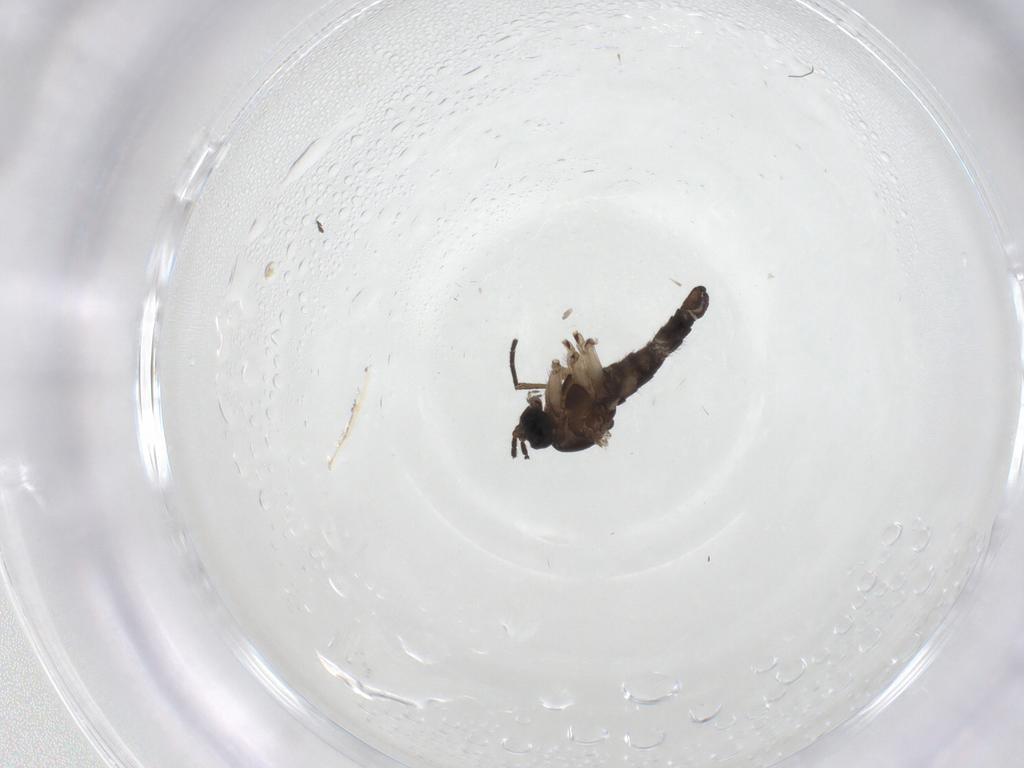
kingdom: Animalia
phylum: Arthropoda
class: Insecta
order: Diptera
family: Sciaridae
